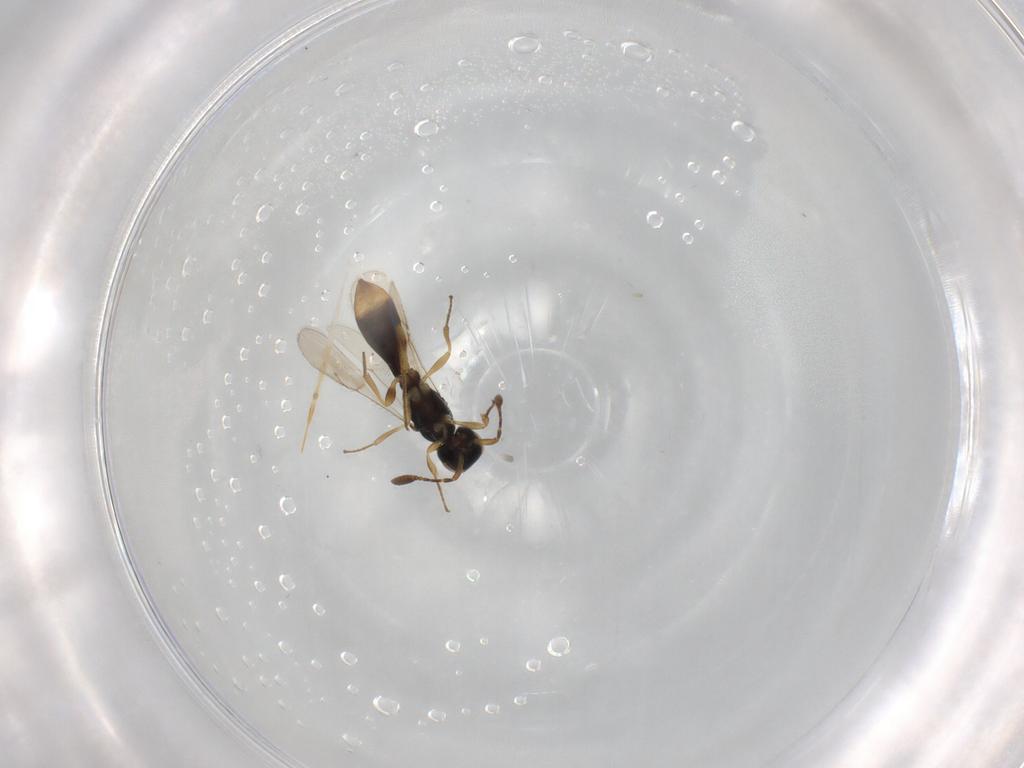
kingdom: Animalia
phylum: Arthropoda
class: Insecta
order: Hymenoptera
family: Scelionidae
